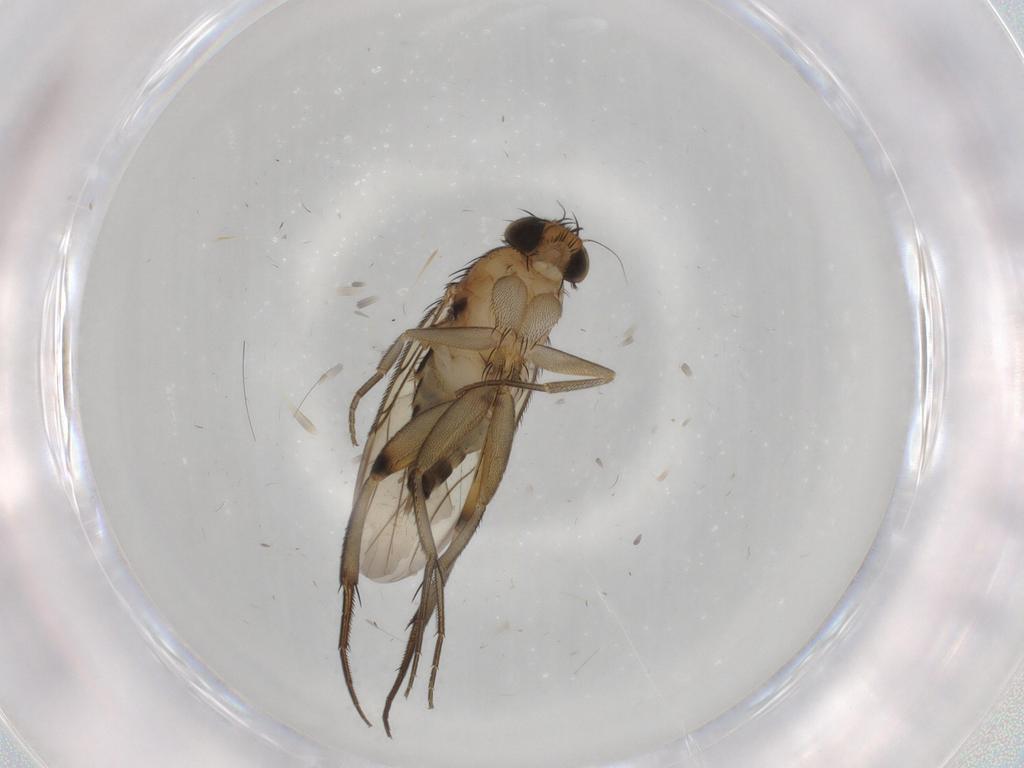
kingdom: Animalia
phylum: Arthropoda
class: Insecta
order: Diptera
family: Phoridae
